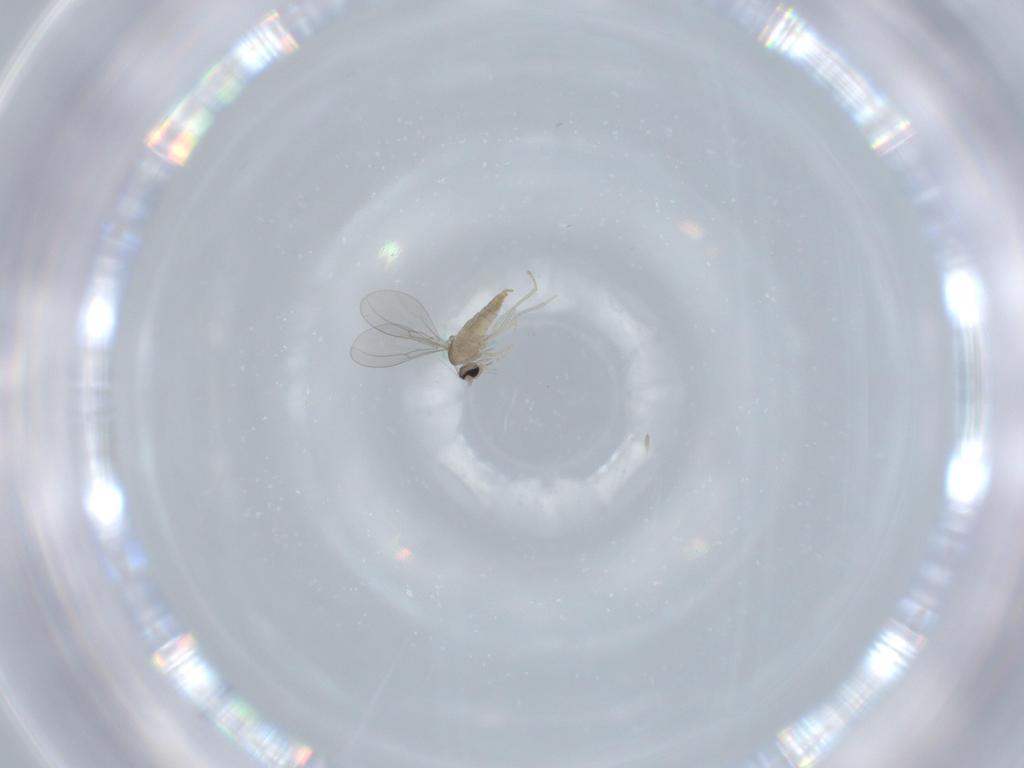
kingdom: Animalia
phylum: Arthropoda
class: Insecta
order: Diptera
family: Cecidomyiidae
